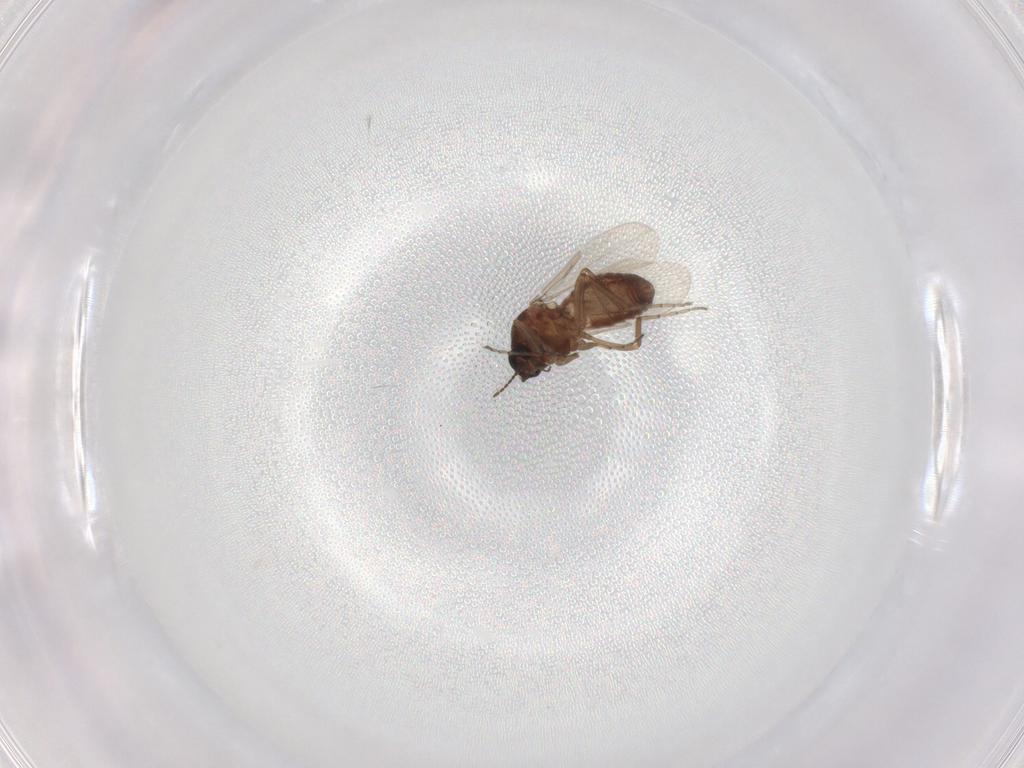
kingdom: Animalia
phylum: Arthropoda
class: Insecta
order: Diptera
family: Ceratopogonidae
